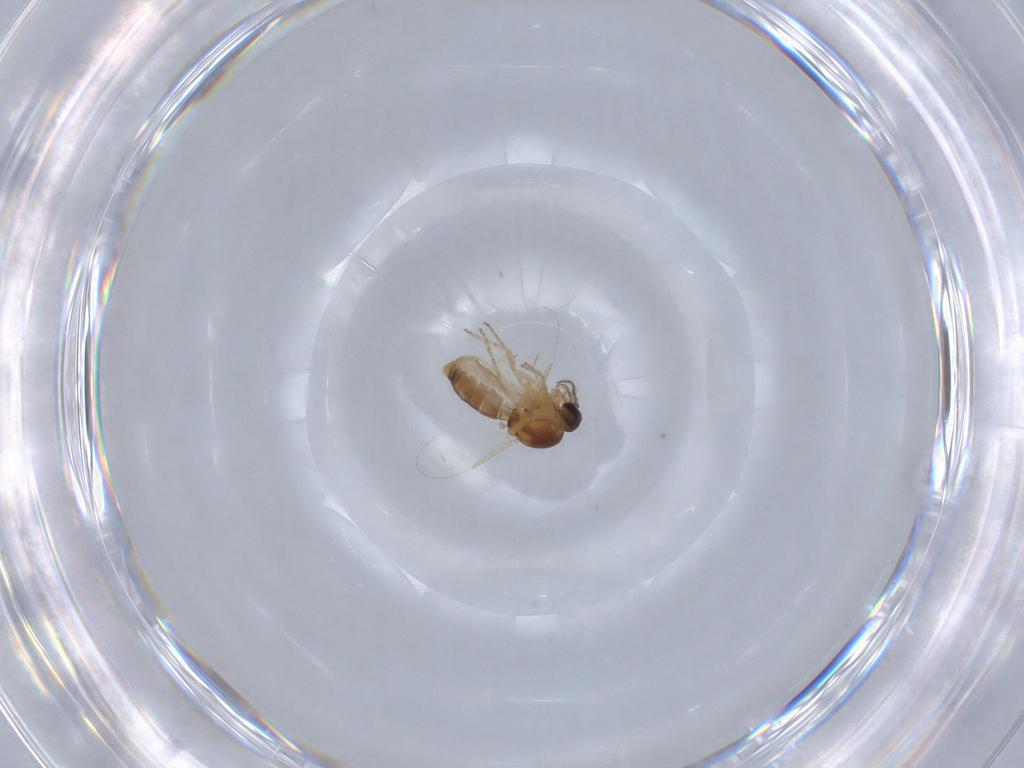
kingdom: Animalia
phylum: Arthropoda
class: Insecta
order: Diptera
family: Ceratopogonidae
